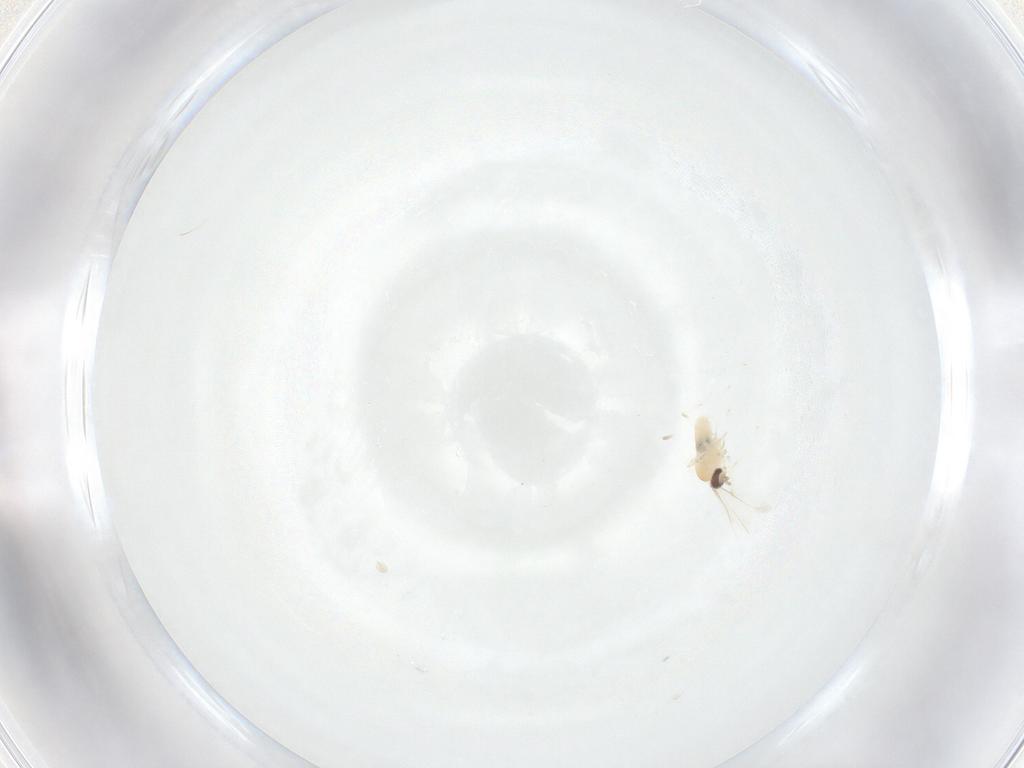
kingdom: Animalia
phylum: Arthropoda
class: Insecta
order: Diptera
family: Cecidomyiidae
